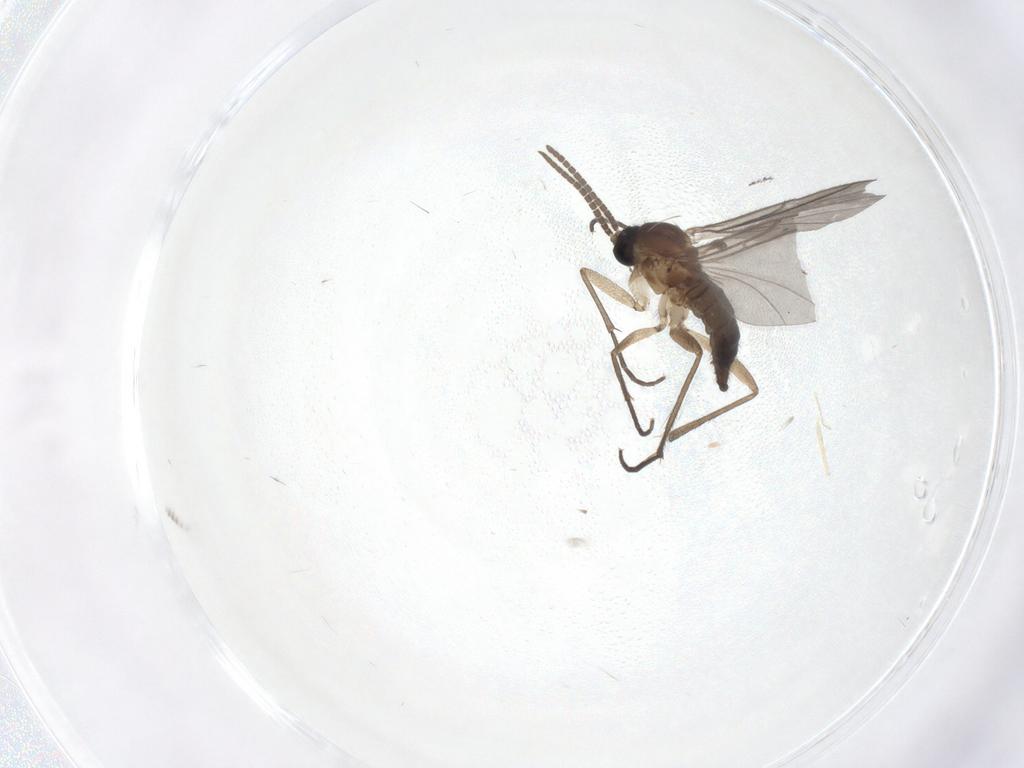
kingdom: Animalia
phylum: Arthropoda
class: Insecta
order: Diptera
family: Limoniidae
